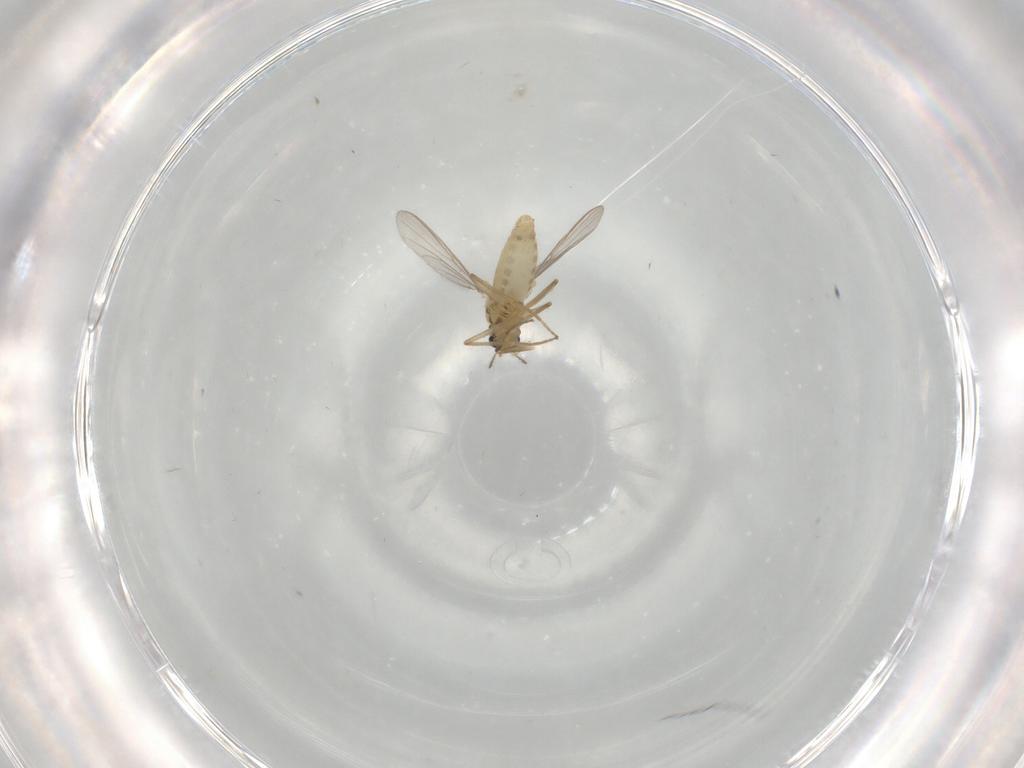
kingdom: Animalia
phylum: Arthropoda
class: Insecta
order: Diptera
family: Chironomidae
